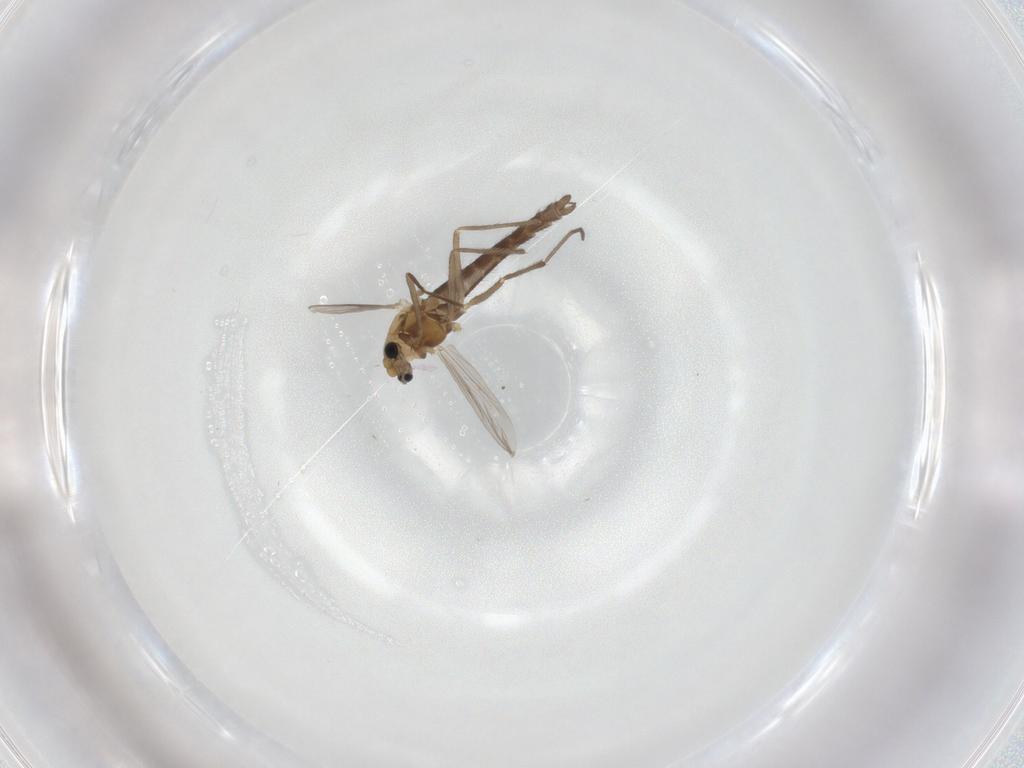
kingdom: Animalia
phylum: Arthropoda
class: Insecta
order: Diptera
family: Chironomidae
